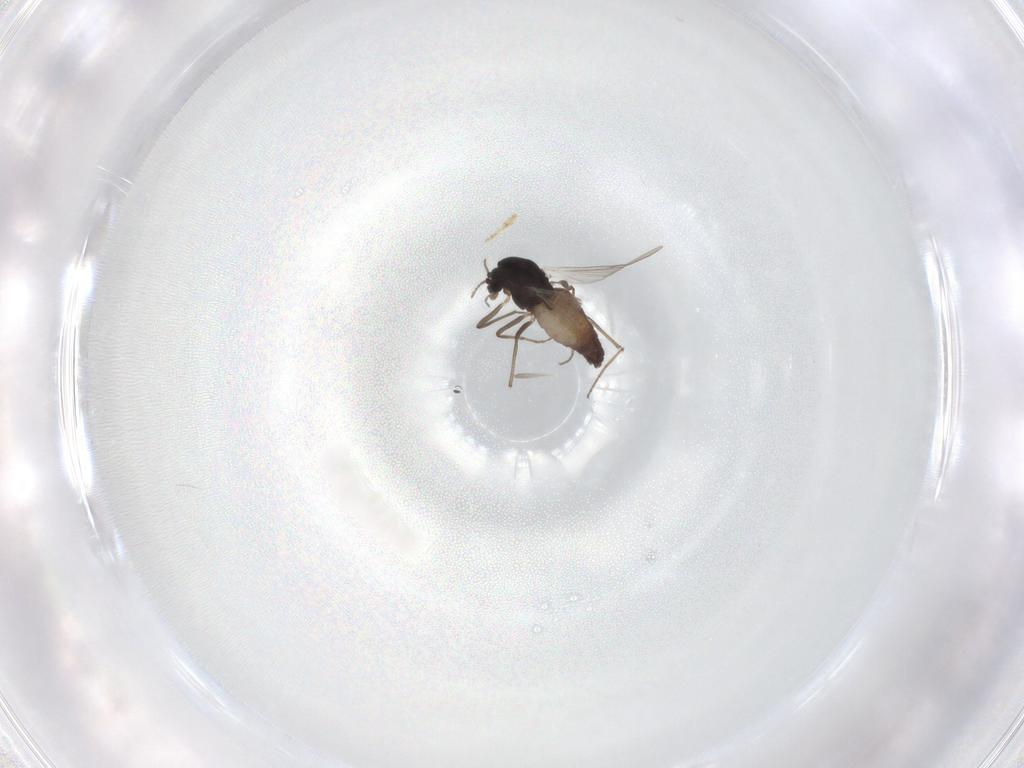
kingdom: Animalia
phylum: Arthropoda
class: Insecta
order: Diptera
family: Chironomidae
